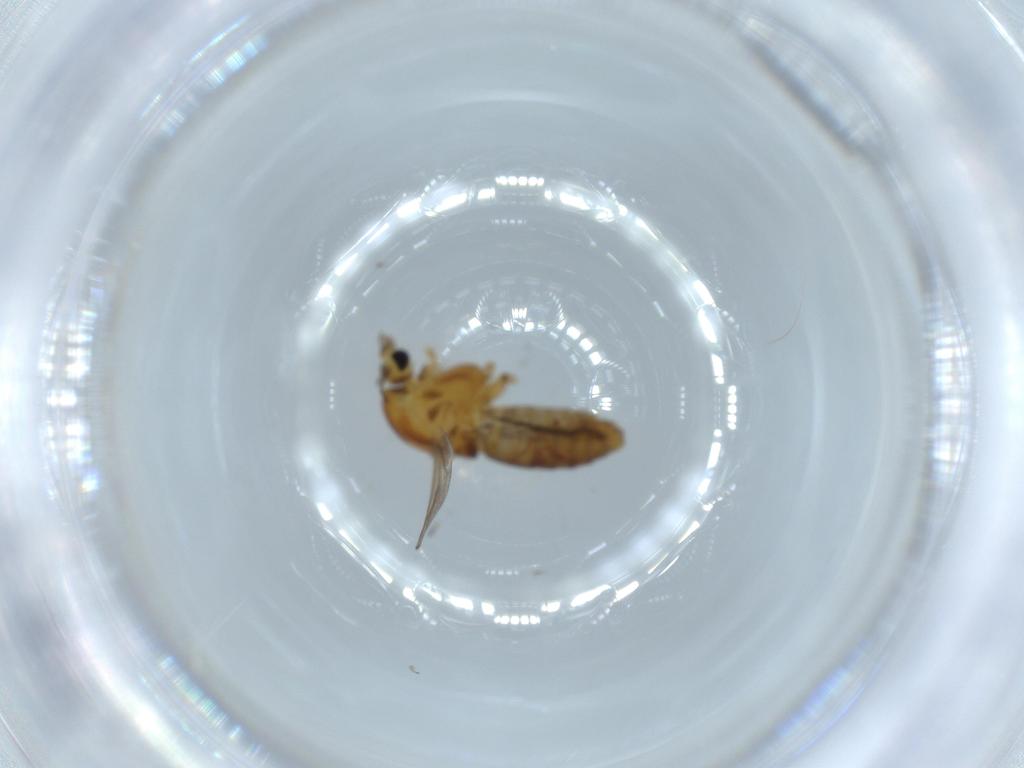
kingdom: Animalia
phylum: Arthropoda
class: Insecta
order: Diptera
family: Chironomidae
